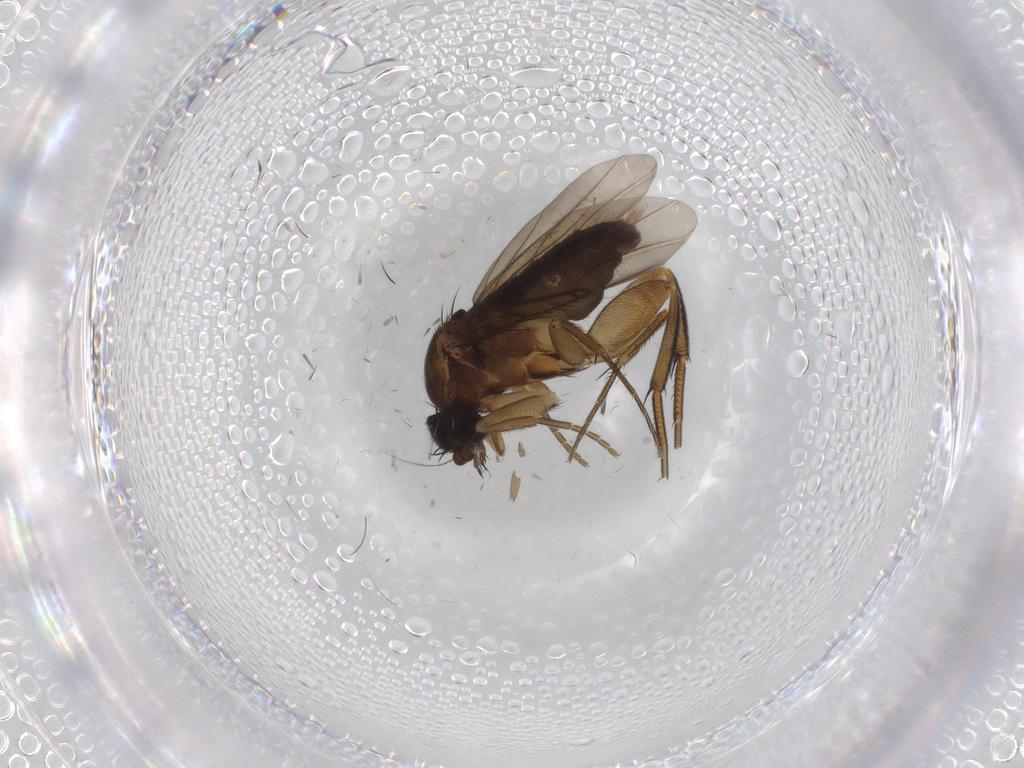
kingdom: Animalia
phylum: Arthropoda
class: Insecta
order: Diptera
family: Phoridae
